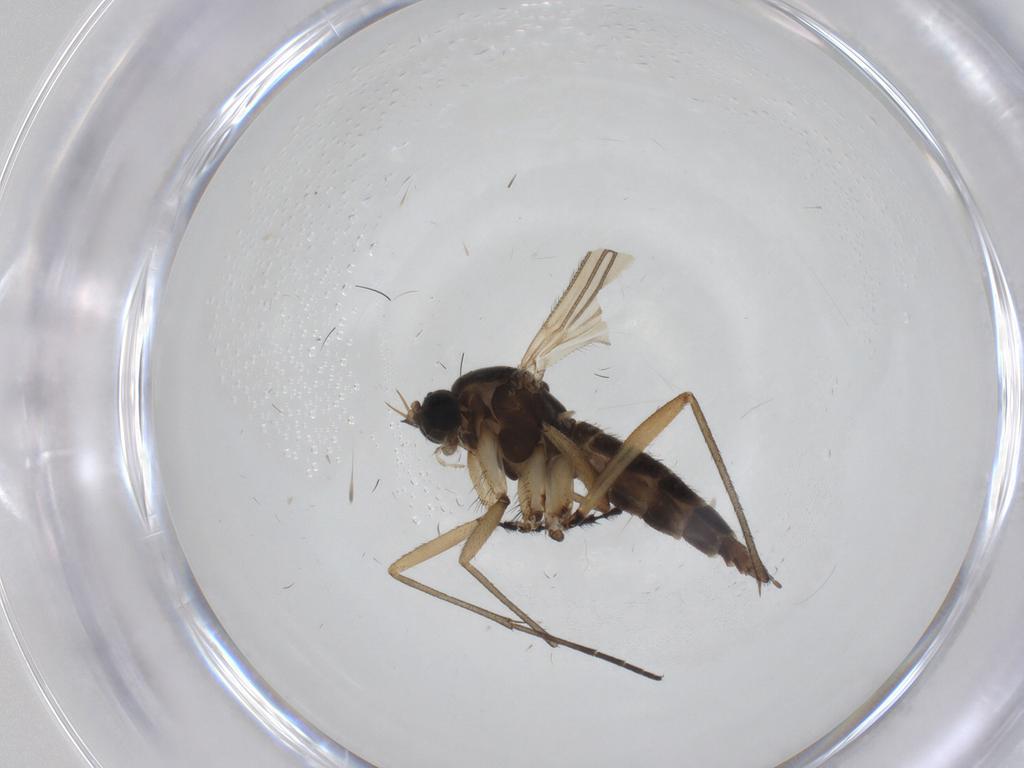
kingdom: Animalia
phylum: Arthropoda
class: Insecta
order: Diptera
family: Sciaridae
